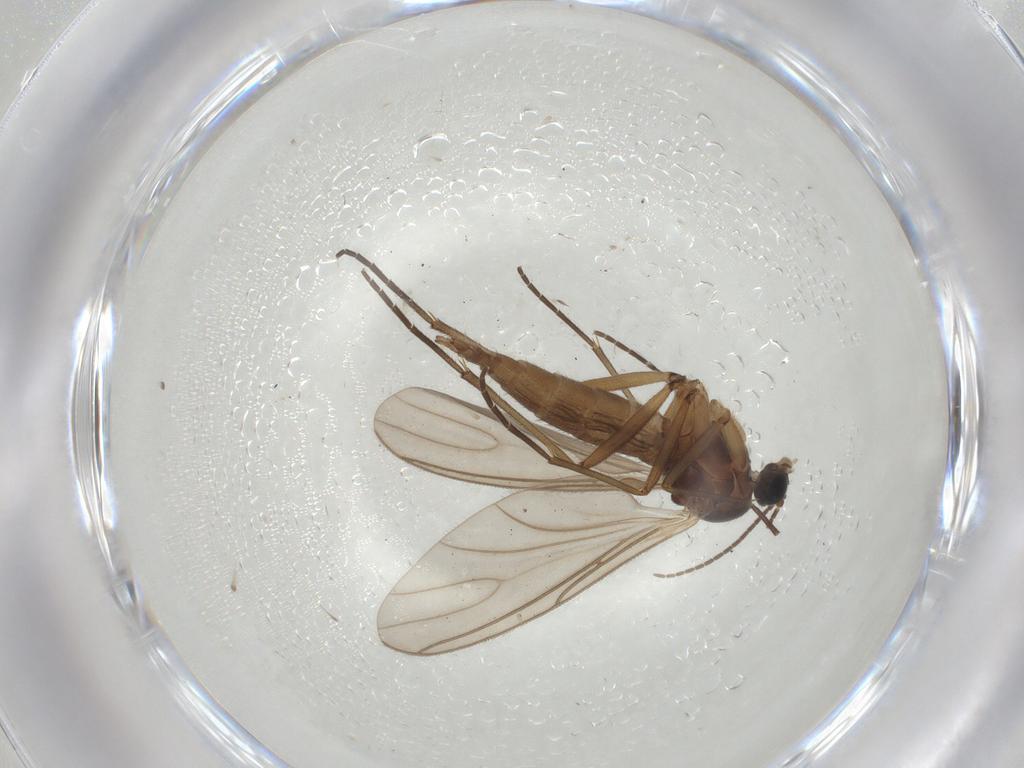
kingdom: Animalia
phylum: Arthropoda
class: Insecta
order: Diptera
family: Sciaridae
